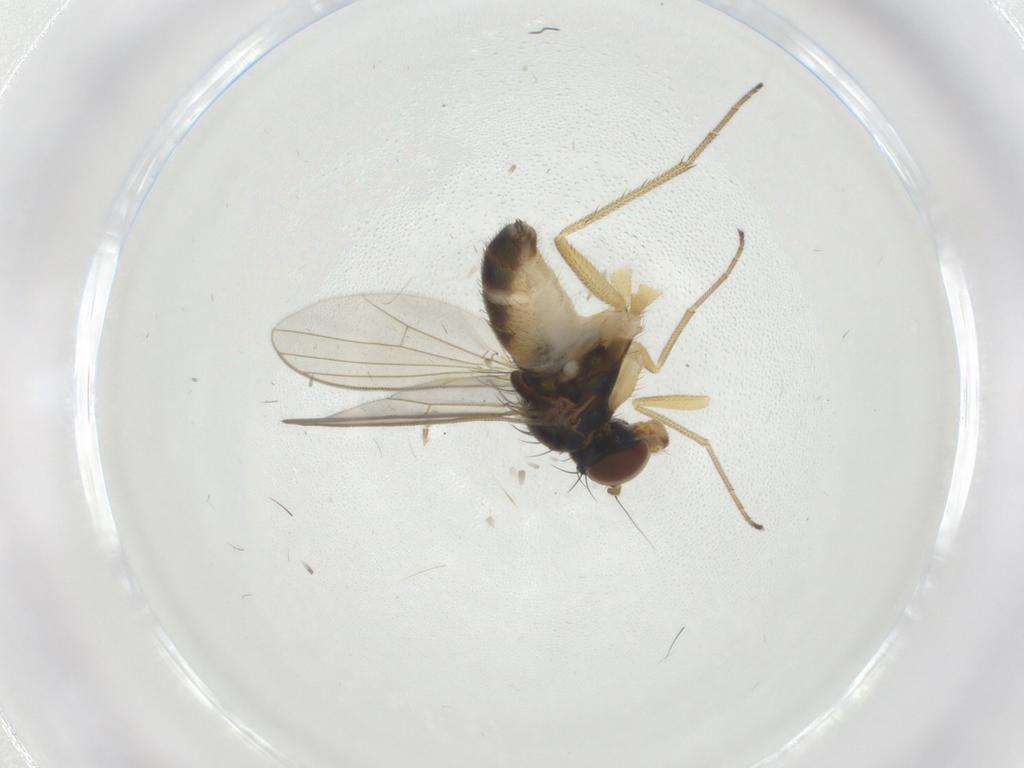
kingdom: Animalia
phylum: Arthropoda
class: Insecta
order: Diptera
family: Dolichopodidae
